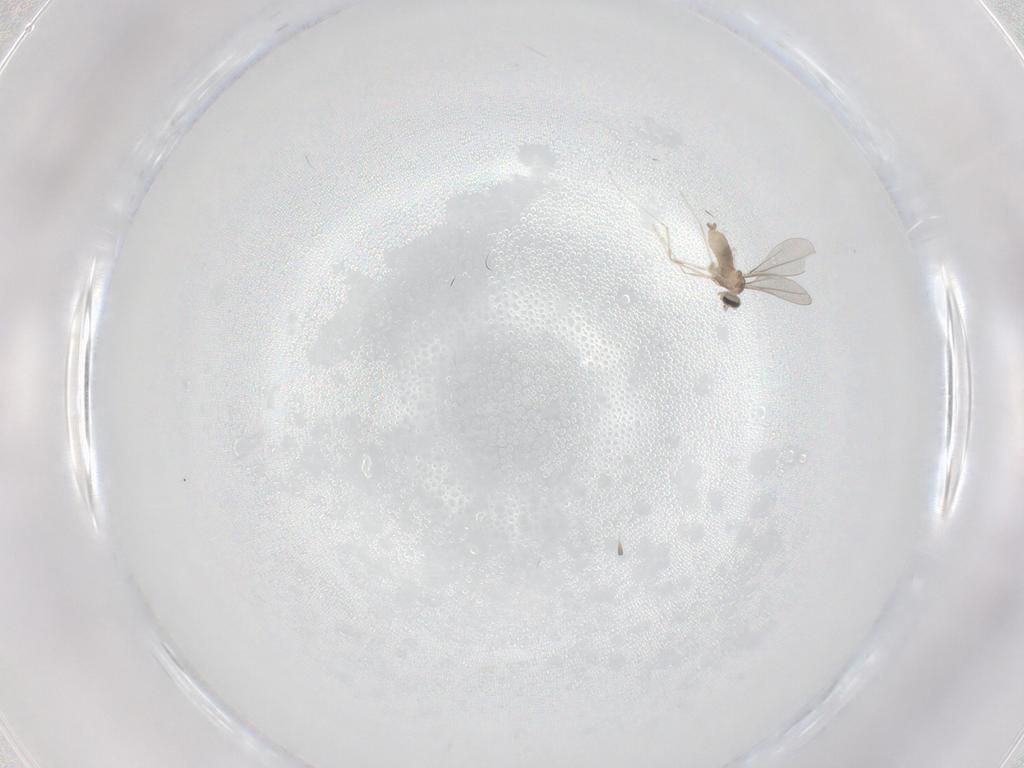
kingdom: Animalia
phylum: Arthropoda
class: Insecta
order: Diptera
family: Cecidomyiidae
